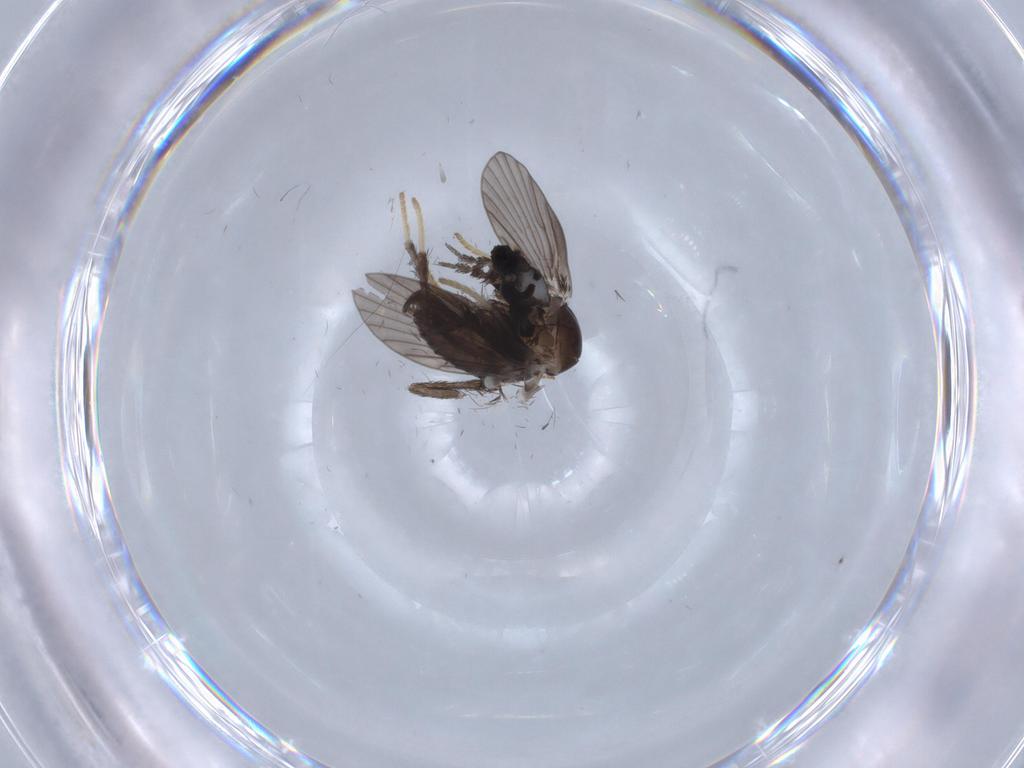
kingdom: Animalia
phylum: Arthropoda
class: Insecta
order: Diptera
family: Psychodidae
